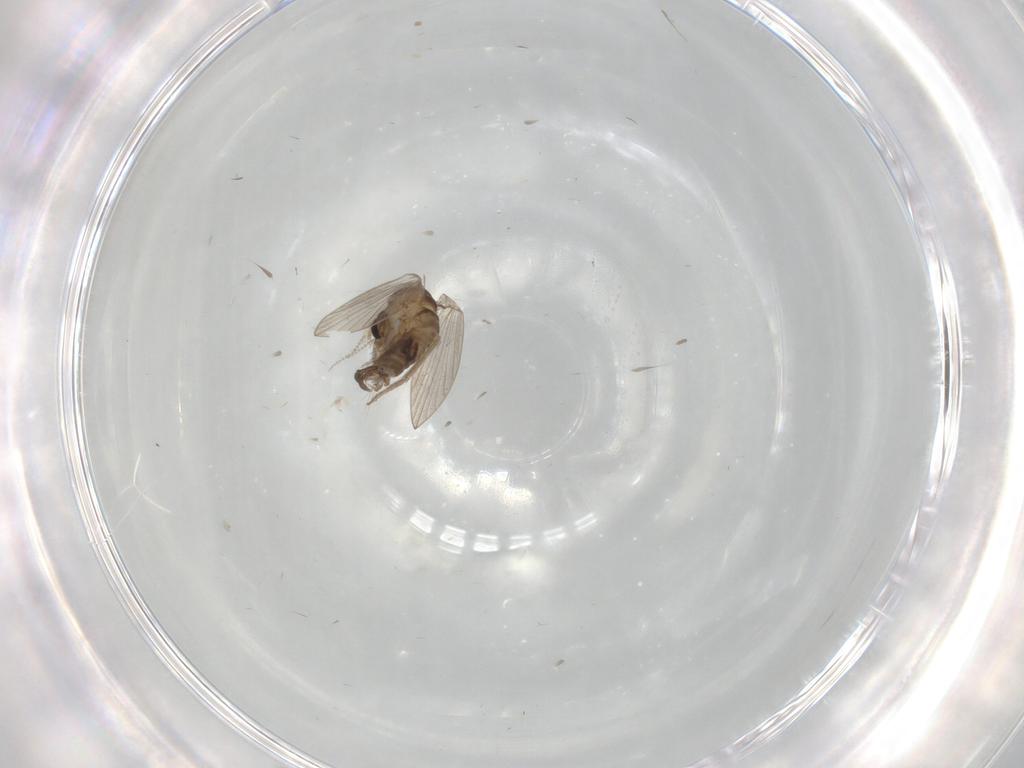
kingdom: Animalia
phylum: Arthropoda
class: Insecta
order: Diptera
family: Psychodidae
